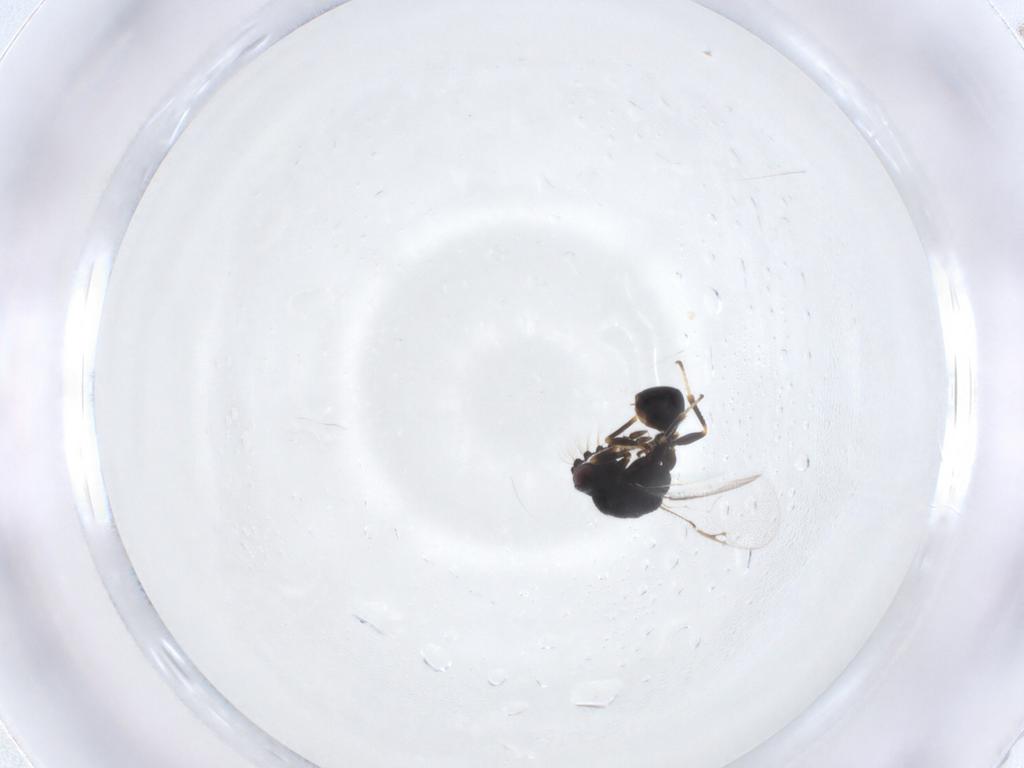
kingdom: Animalia
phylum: Arthropoda
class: Insecta
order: Hymenoptera
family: Eurytomidae
